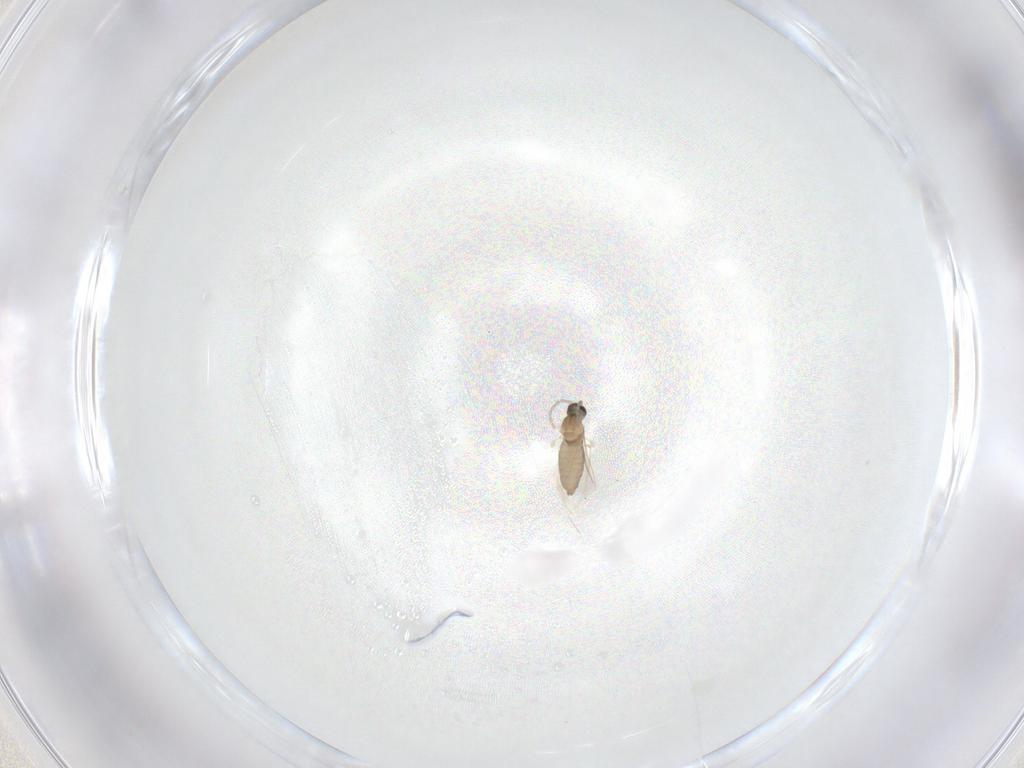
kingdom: Animalia
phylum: Arthropoda
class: Insecta
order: Diptera
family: Cecidomyiidae
